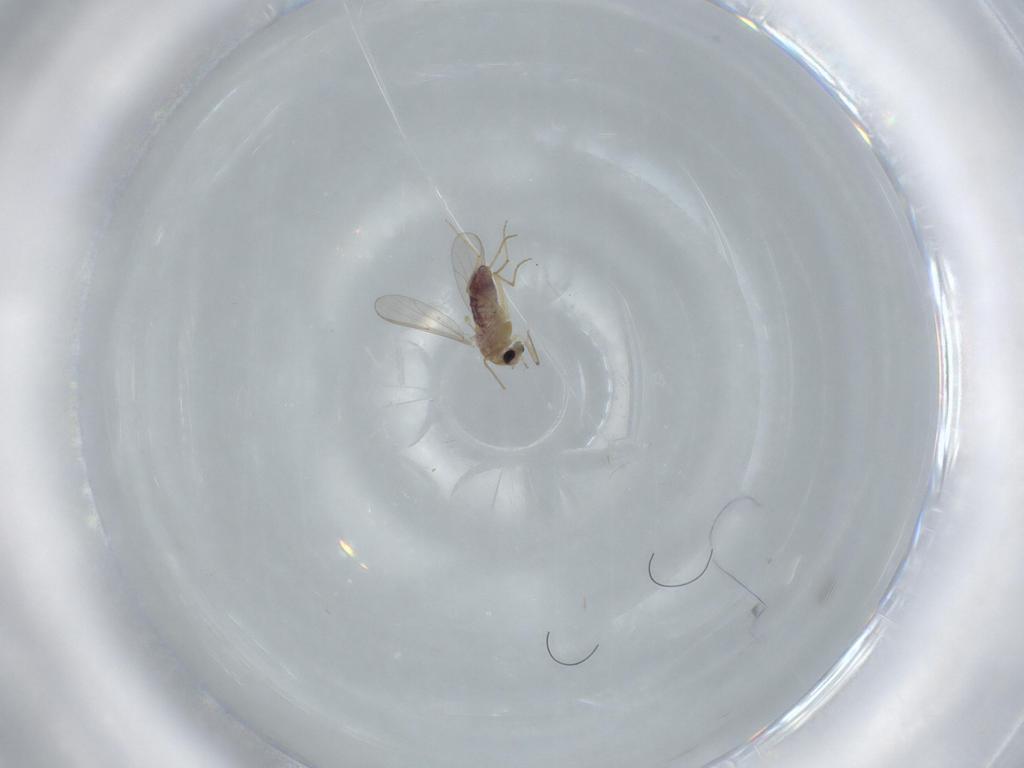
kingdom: Animalia
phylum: Arthropoda
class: Insecta
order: Diptera
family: Chironomidae
